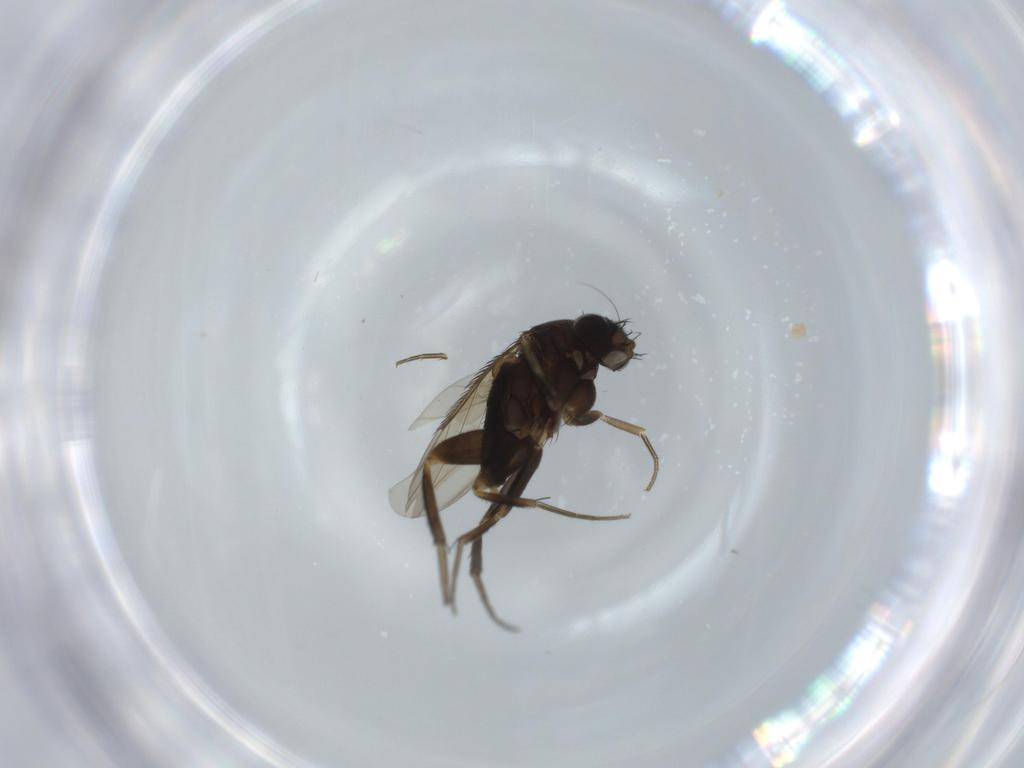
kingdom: Animalia
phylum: Arthropoda
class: Insecta
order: Diptera
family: Phoridae
